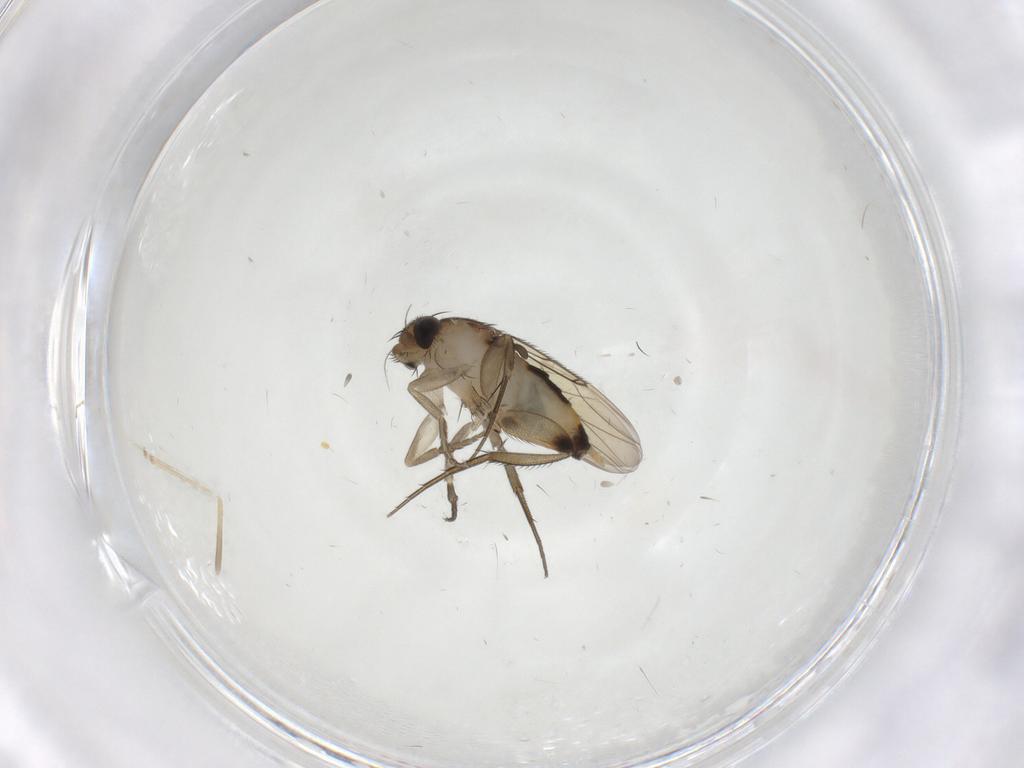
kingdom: Animalia
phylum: Arthropoda
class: Insecta
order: Diptera
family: Phoridae
